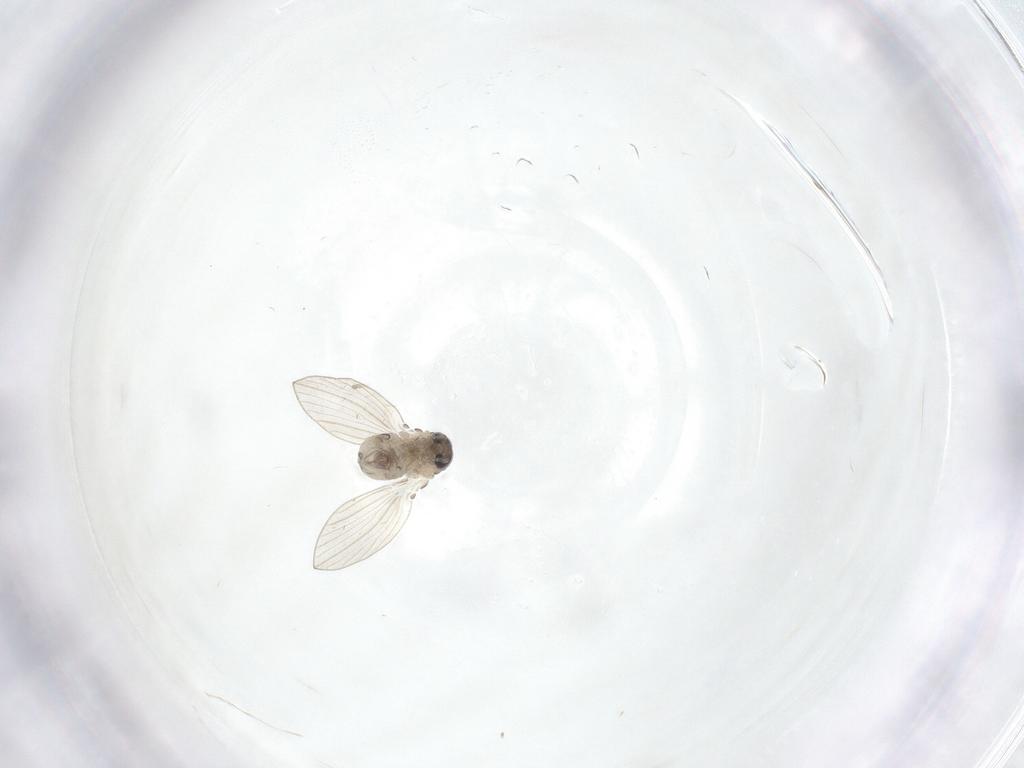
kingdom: Animalia
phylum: Arthropoda
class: Insecta
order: Diptera
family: Psychodidae
